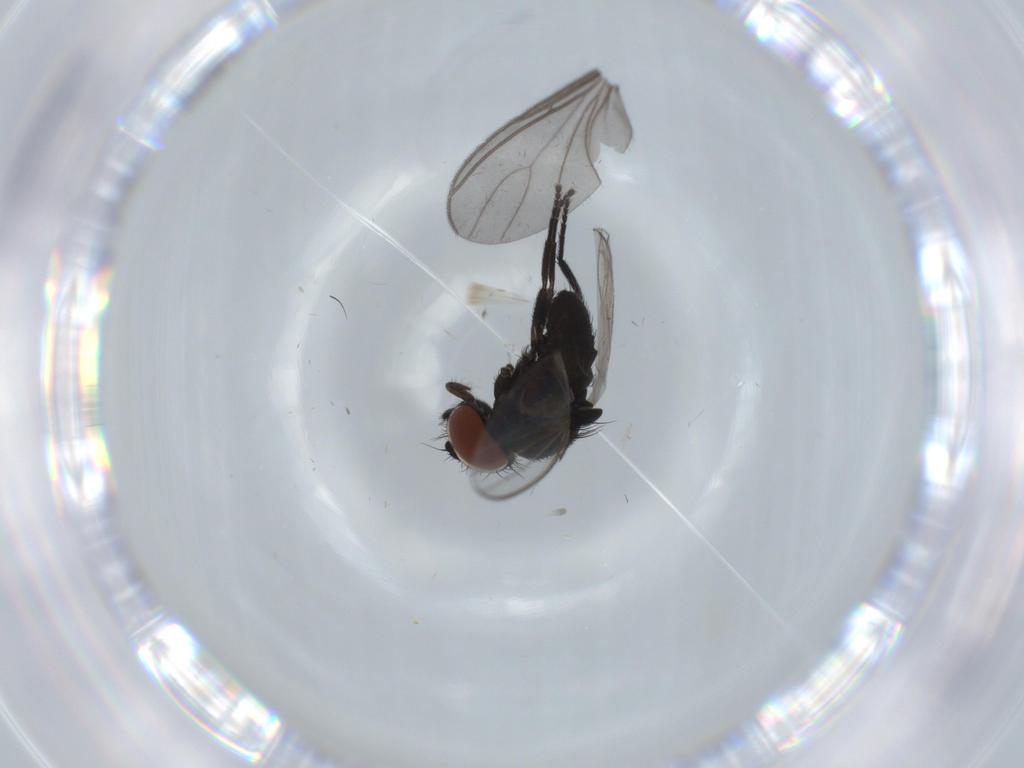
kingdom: Animalia
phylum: Arthropoda
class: Insecta
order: Diptera
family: Milichiidae
